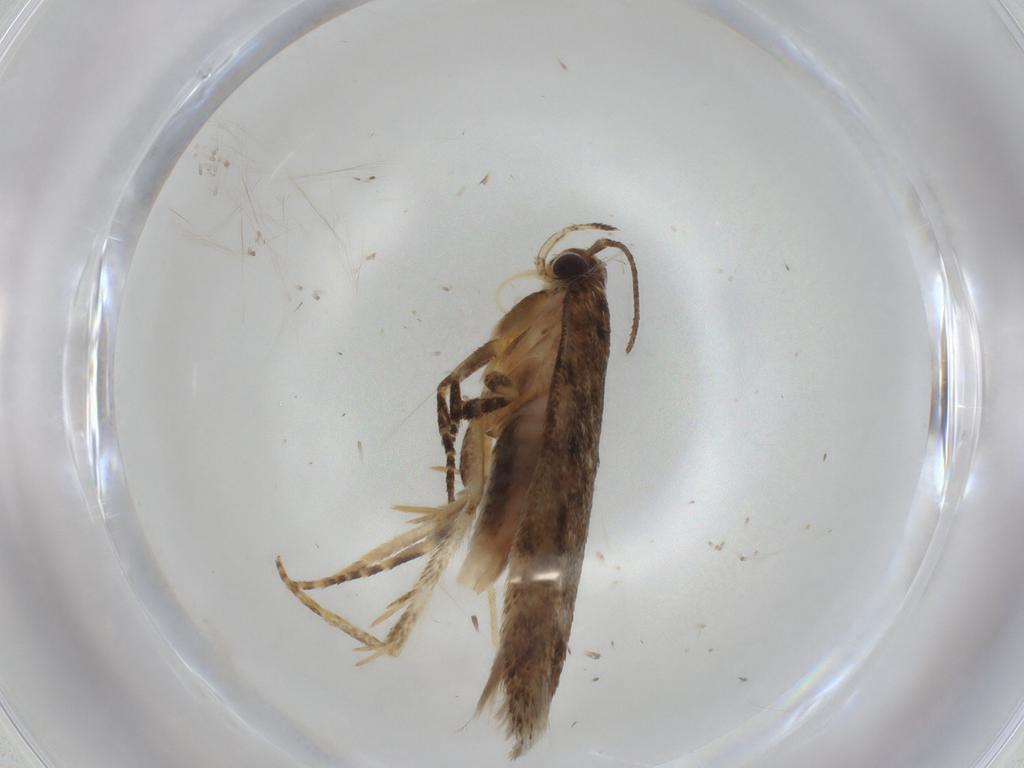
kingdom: Animalia
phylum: Arthropoda
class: Insecta
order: Lepidoptera
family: Gelechiidae
